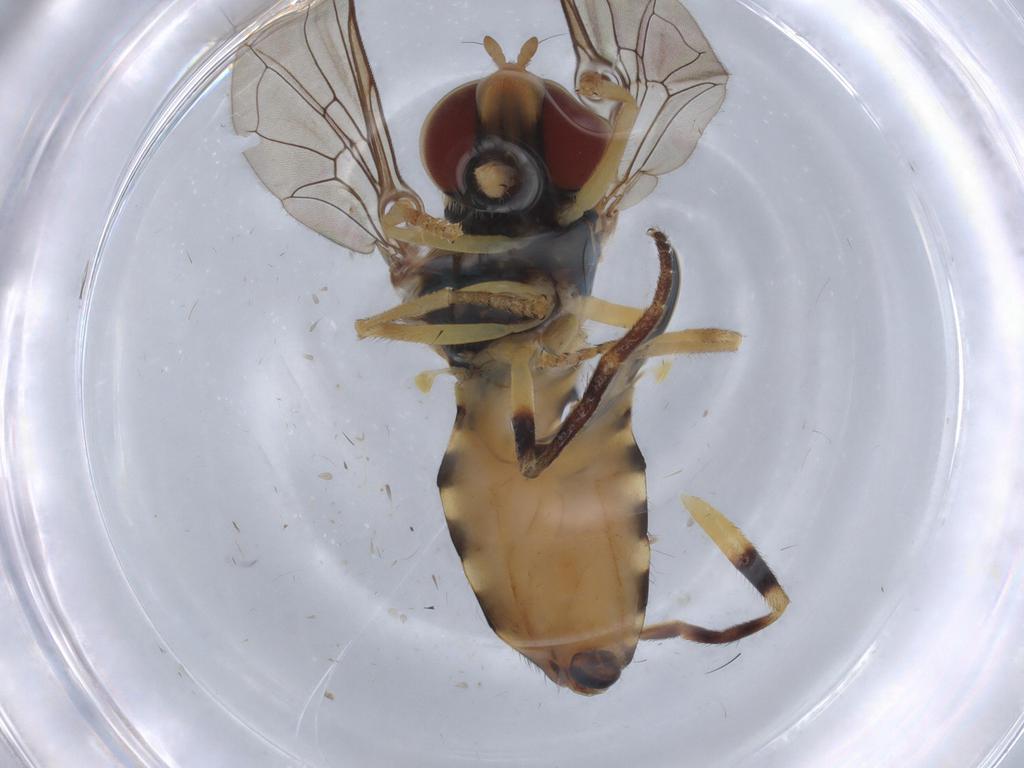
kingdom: Animalia
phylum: Arthropoda
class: Insecta
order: Diptera
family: Syrphidae
